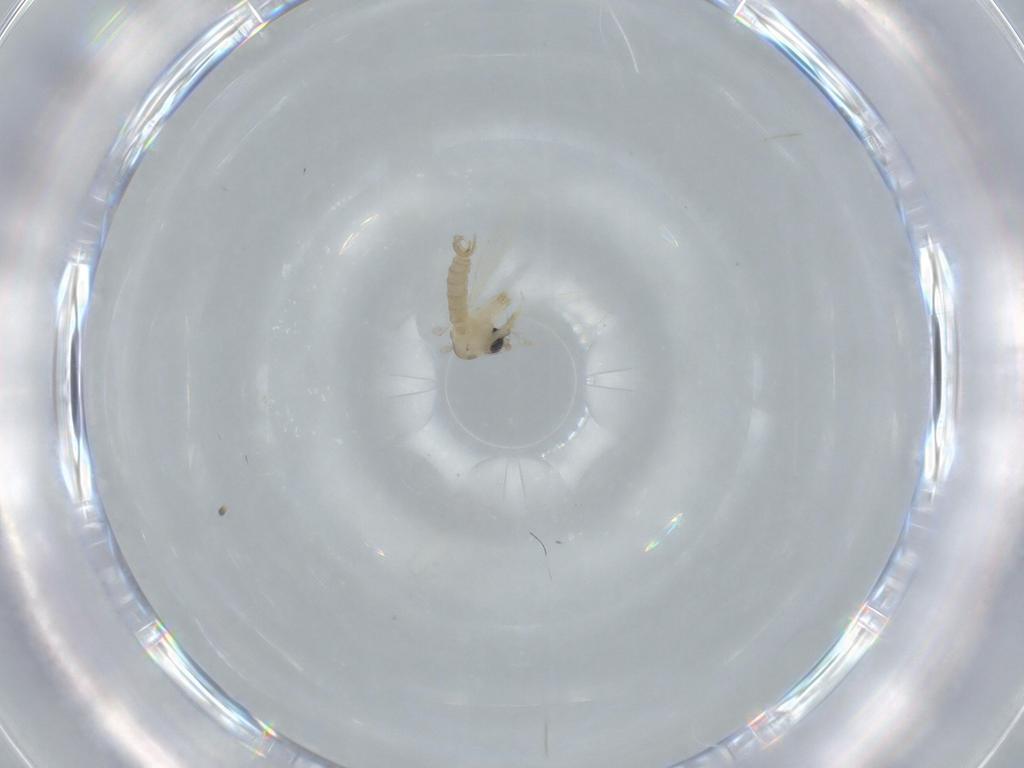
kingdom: Animalia
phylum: Arthropoda
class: Insecta
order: Diptera
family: Psychodidae
